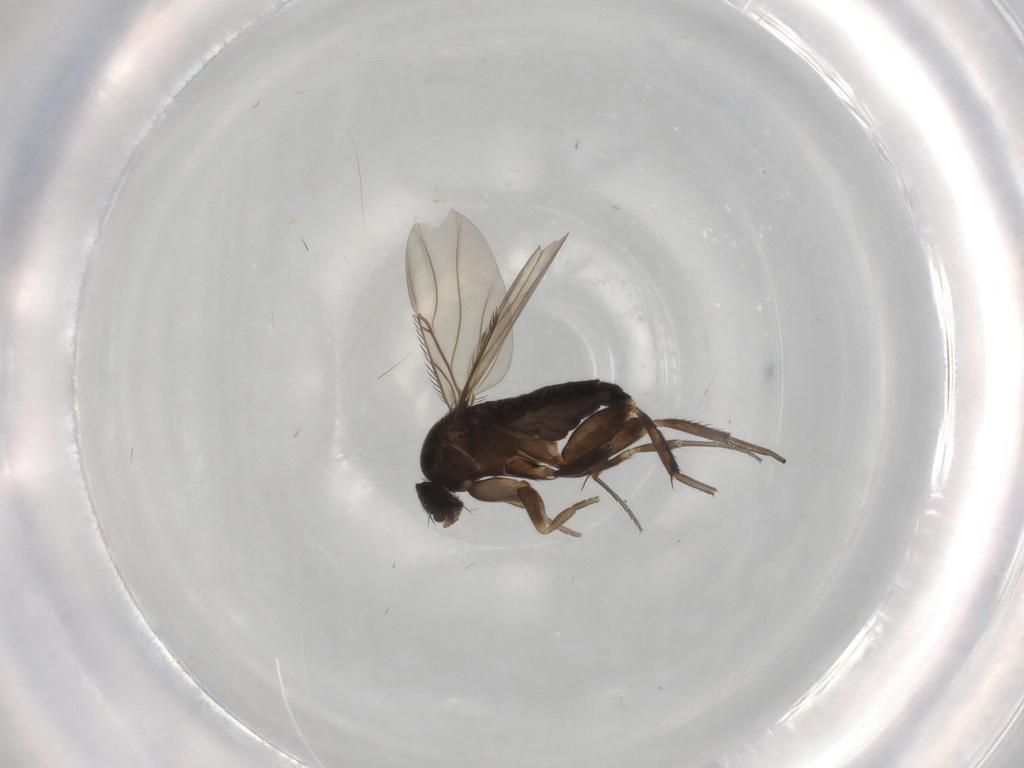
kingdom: Animalia
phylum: Arthropoda
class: Insecta
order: Diptera
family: Phoridae
